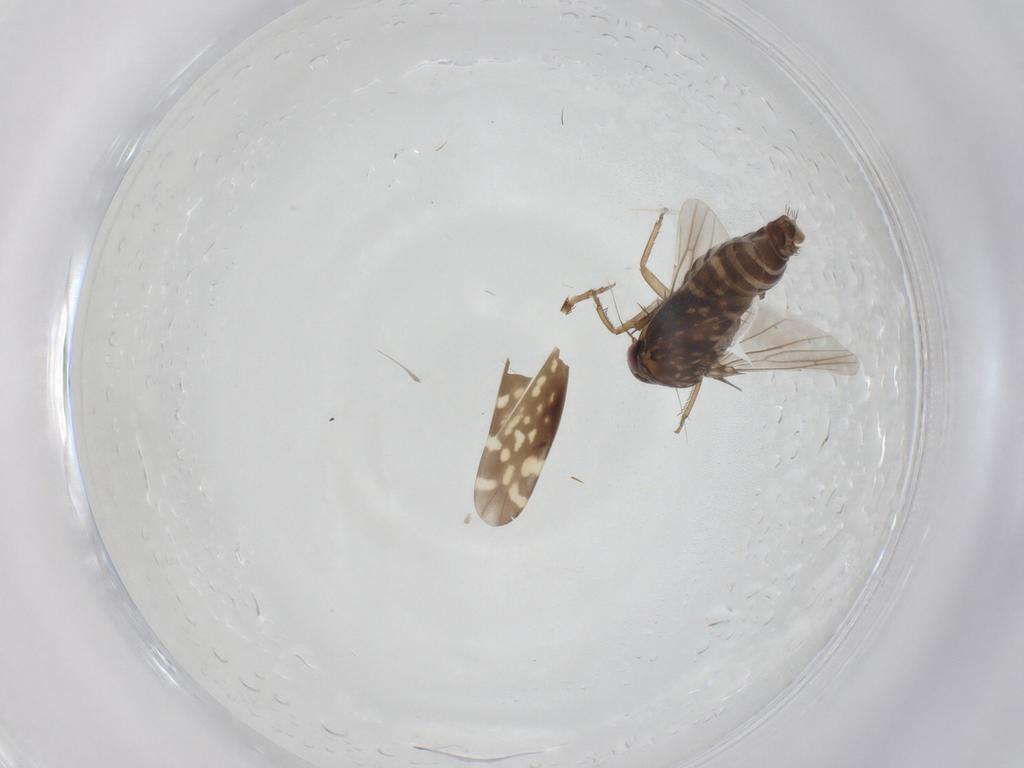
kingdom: Animalia
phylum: Arthropoda
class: Insecta
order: Hemiptera
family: Cicadellidae
